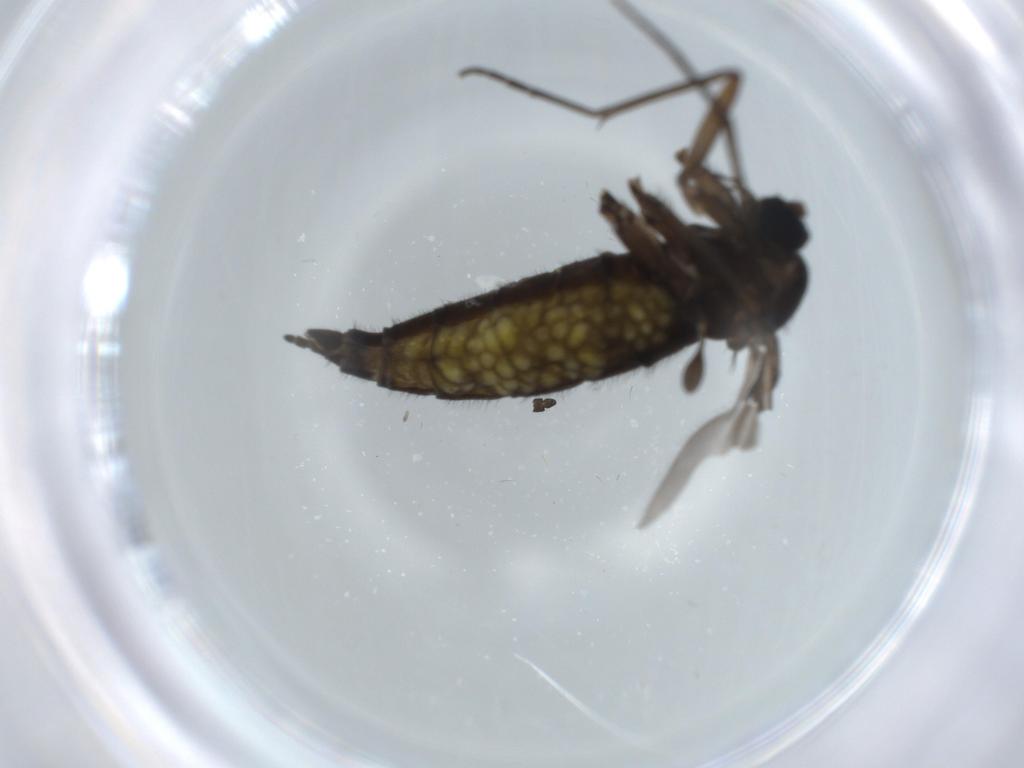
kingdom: Animalia
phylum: Arthropoda
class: Insecta
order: Diptera
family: Sciaridae
